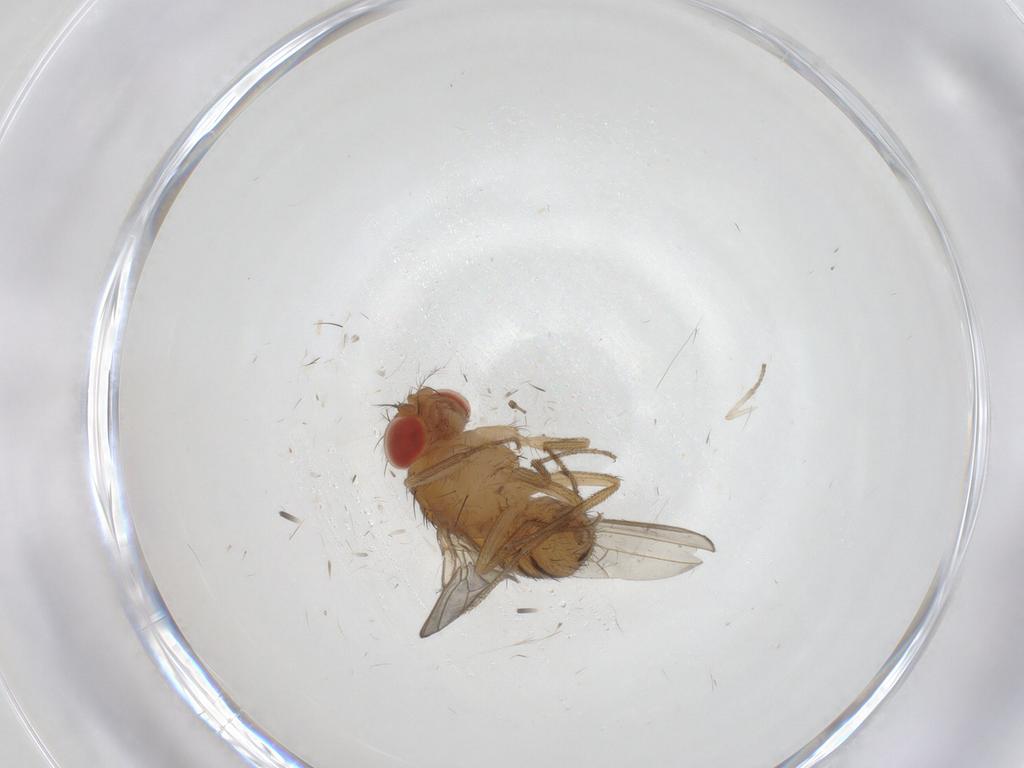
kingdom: Animalia
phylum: Arthropoda
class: Insecta
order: Diptera
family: Drosophilidae
